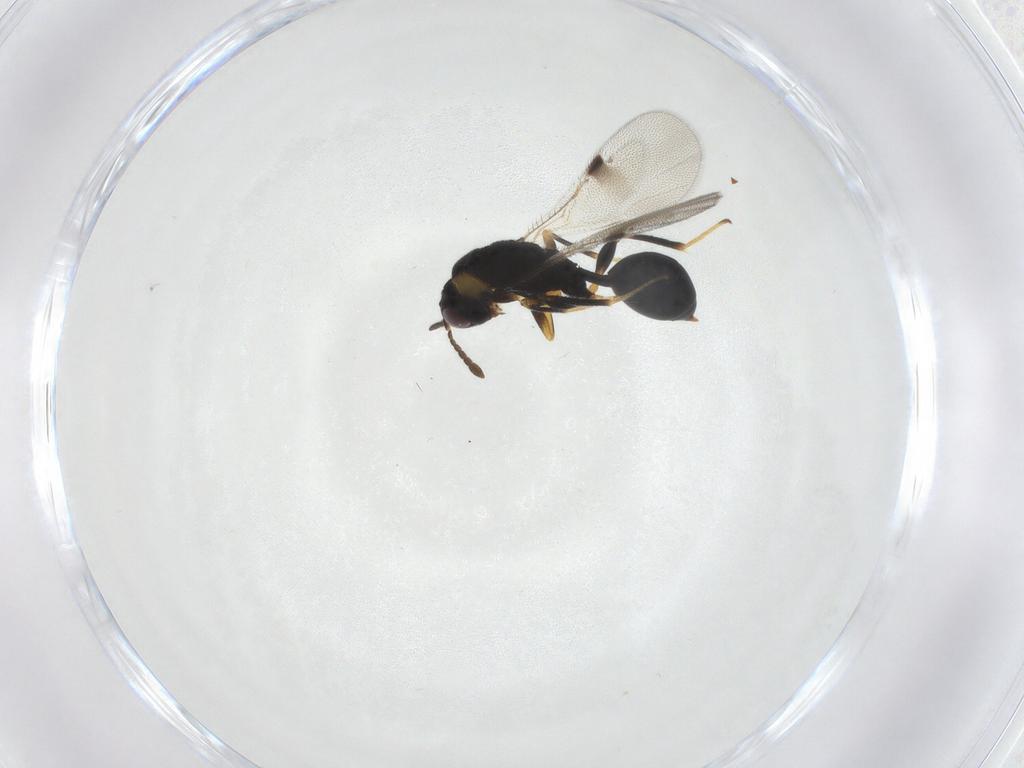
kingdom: Animalia
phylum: Arthropoda
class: Insecta
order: Hymenoptera
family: Eurytomidae
